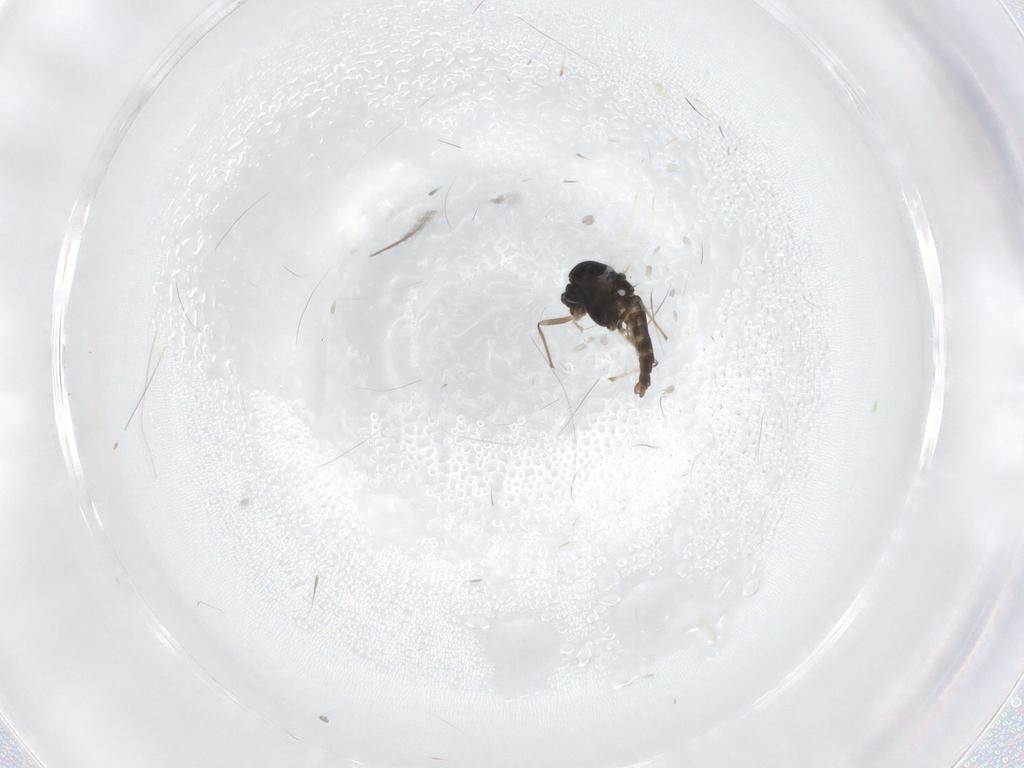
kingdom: Animalia
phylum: Arthropoda
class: Insecta
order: Diptera
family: Chironomidae
